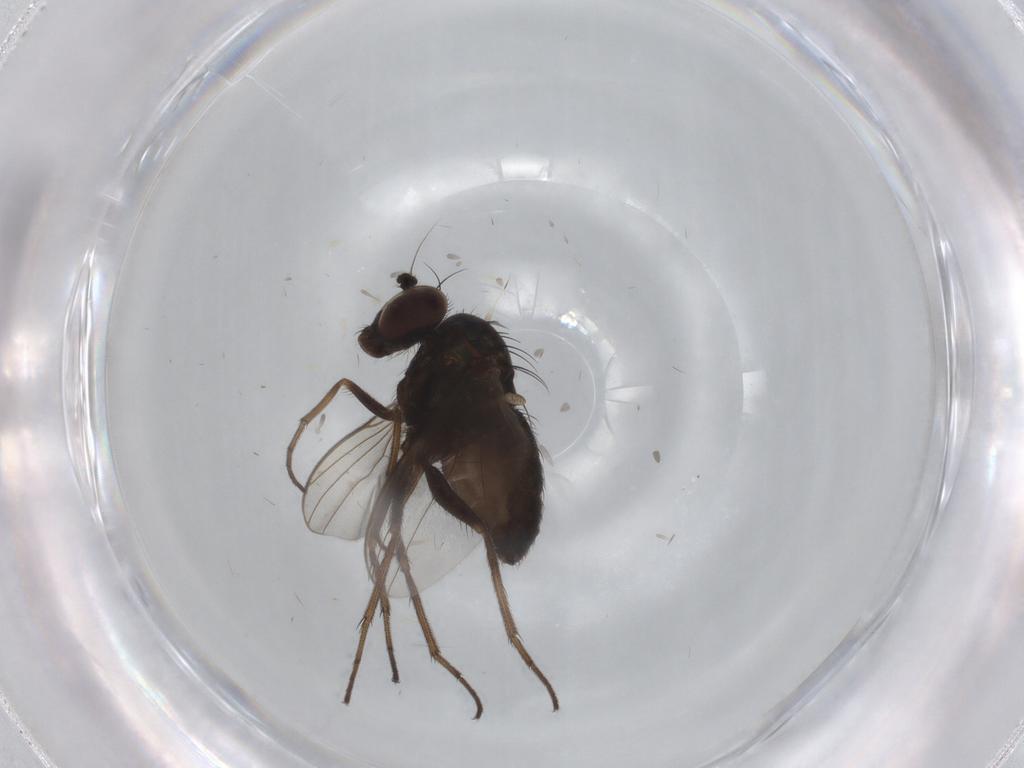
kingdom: Animalia
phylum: Arthropoda
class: Insecta
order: Diptera
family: Dolichopodidae
